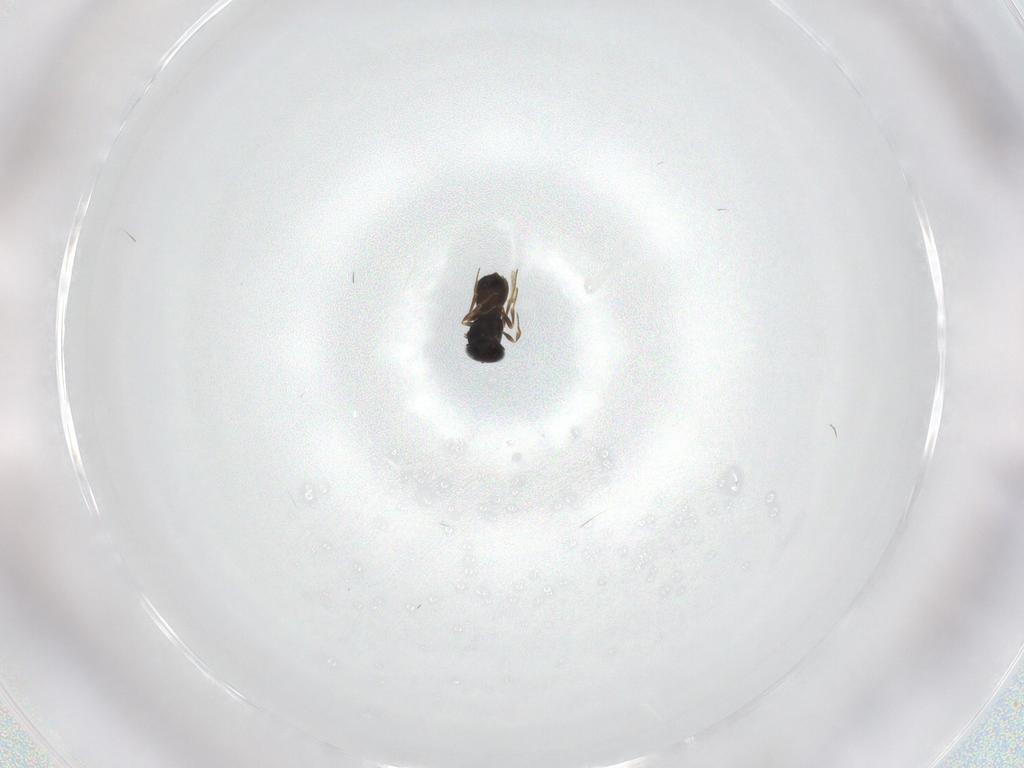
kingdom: Animalia
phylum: Arthropoda
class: Insecta
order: Hymenoptera
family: Scelionidae
